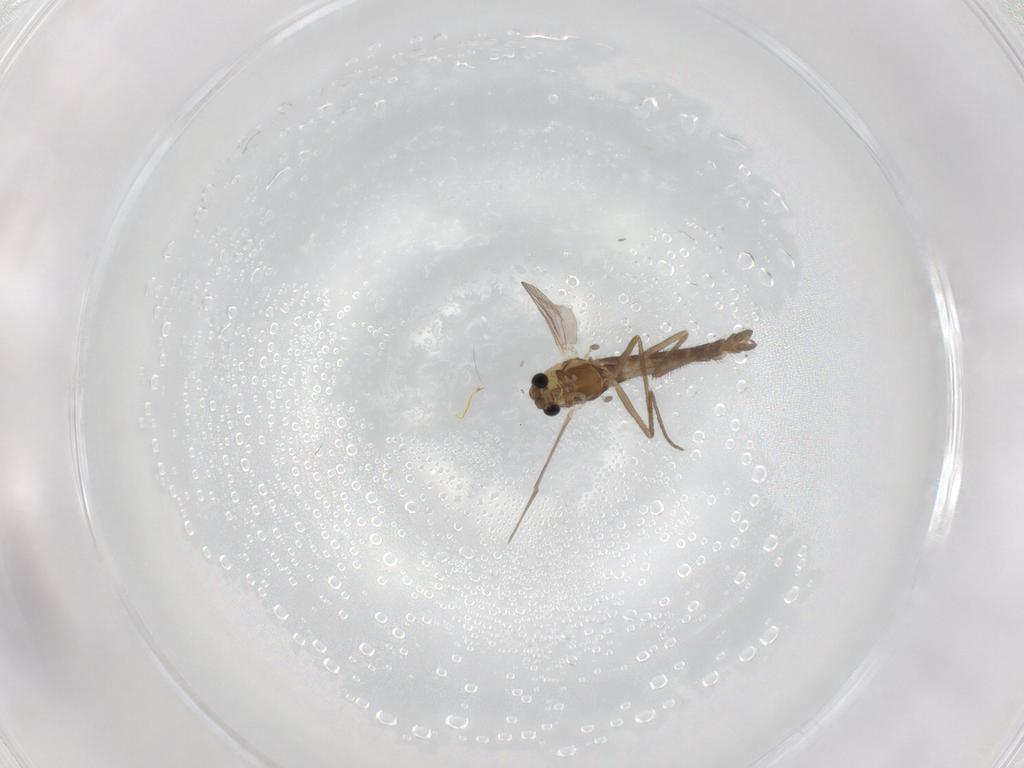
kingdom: Animalia
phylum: Arthropoda
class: Insecta
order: Diptera
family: Chironomidae
